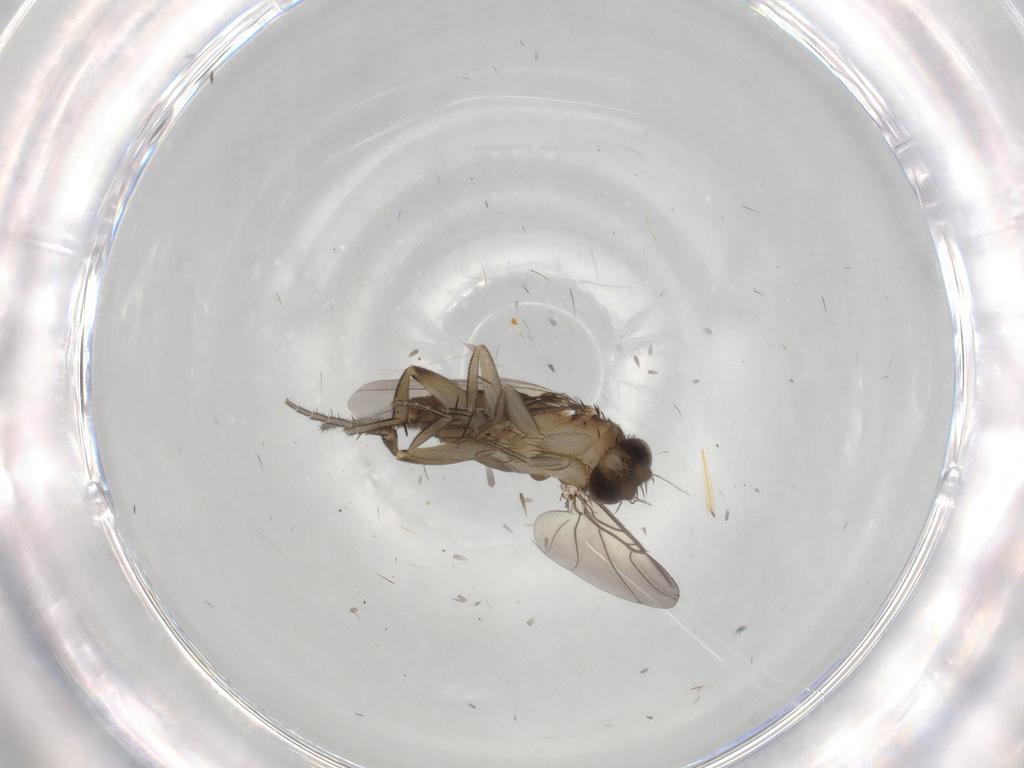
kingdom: Animalia
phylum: Arthropoda
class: Insecta
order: Diptera
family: Phoridae
